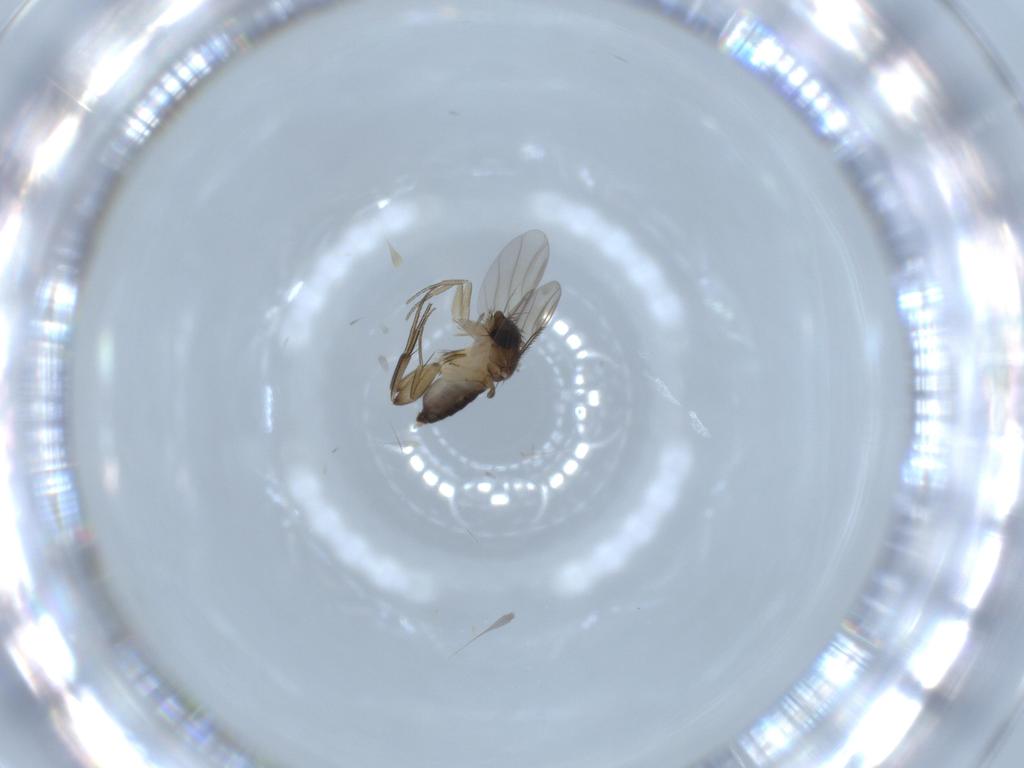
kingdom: Animalia
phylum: Arthropoda
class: Insecta
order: Diptera
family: Phoridae
